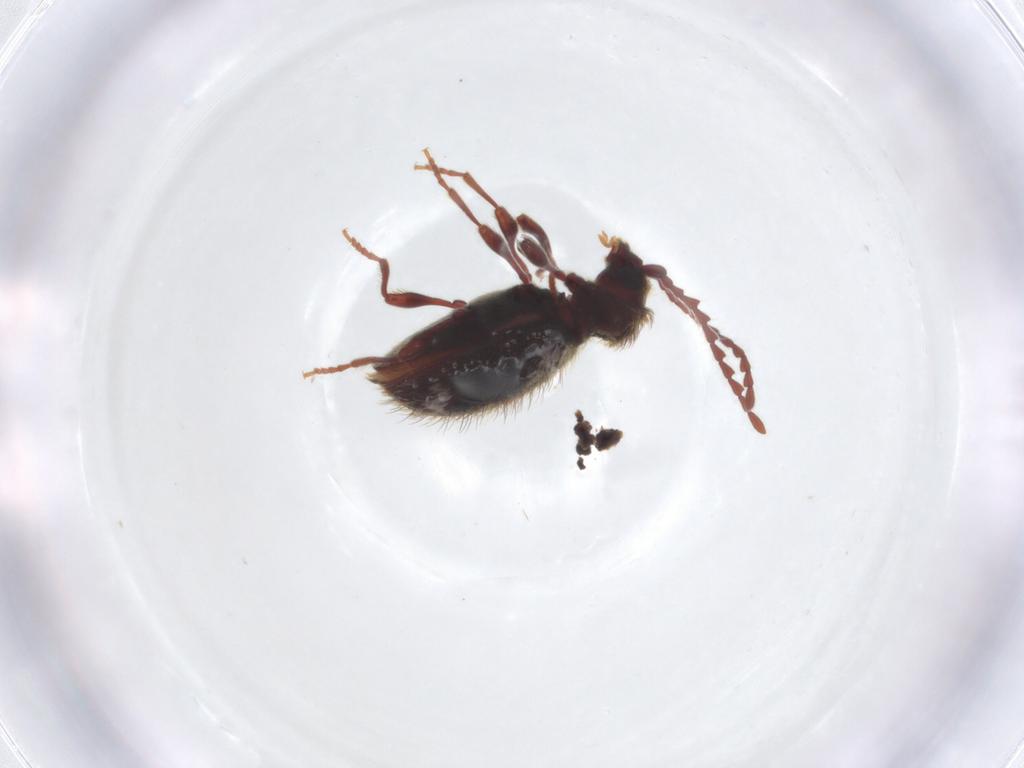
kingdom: Animalia
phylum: Arthropoda
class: Insecta
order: Coleoptera
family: Ptinidae
